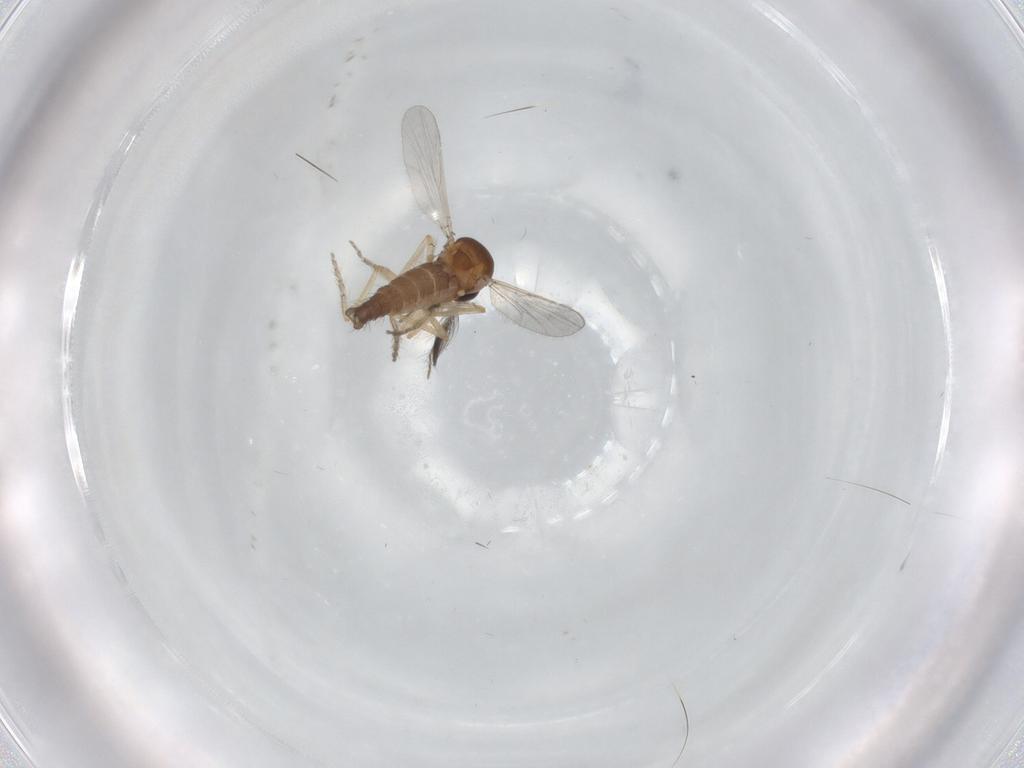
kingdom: Animalia
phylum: Arthropoda
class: Insecta
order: Diptera
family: Ceratopogonidae
